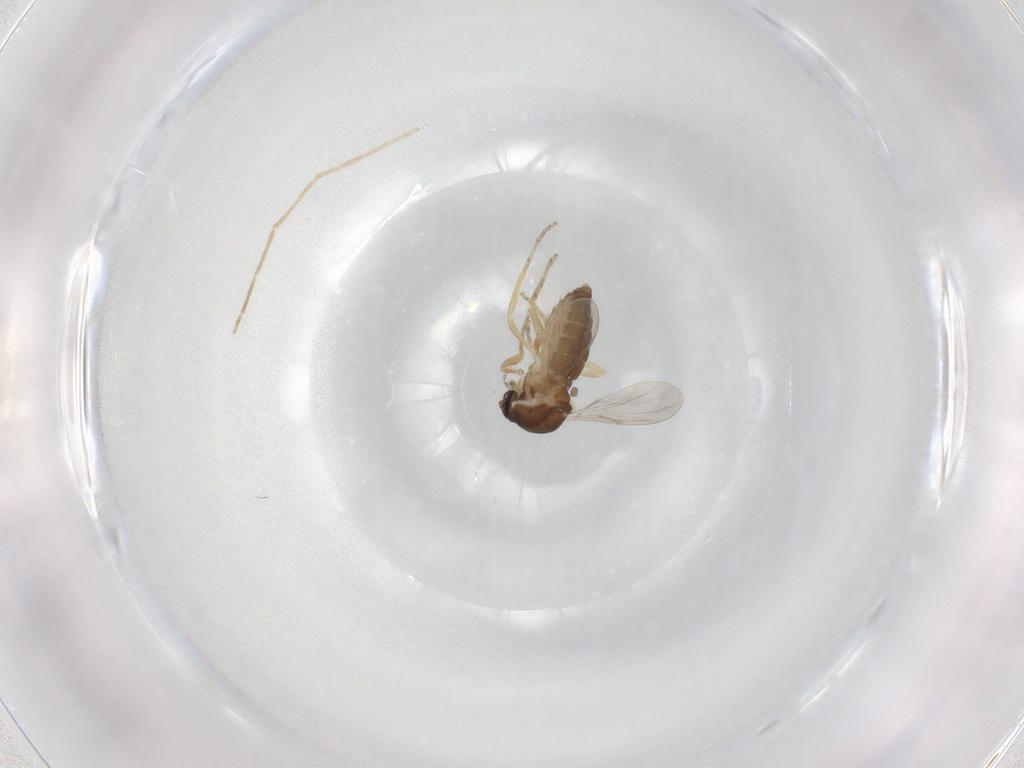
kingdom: Animalia
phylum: Arthropoda
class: Insecta
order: Diptera
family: Ceratopogonidae
